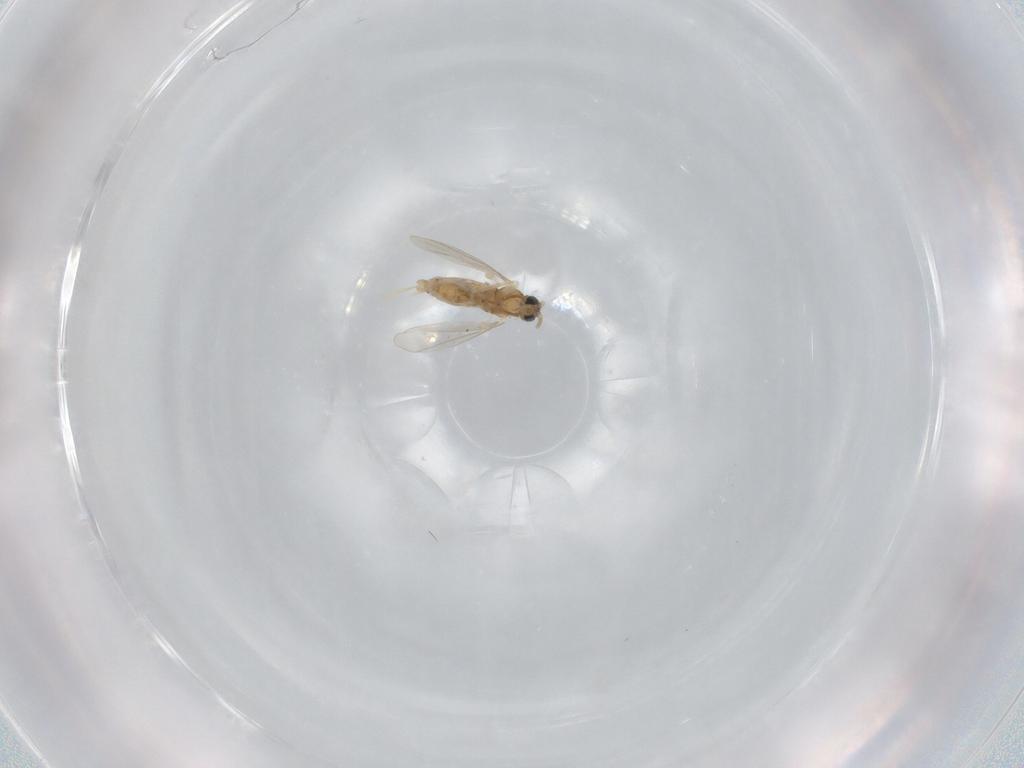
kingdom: Animalia
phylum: Arthropoda
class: Insecta
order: Diptera
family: Cecidomyiidae
